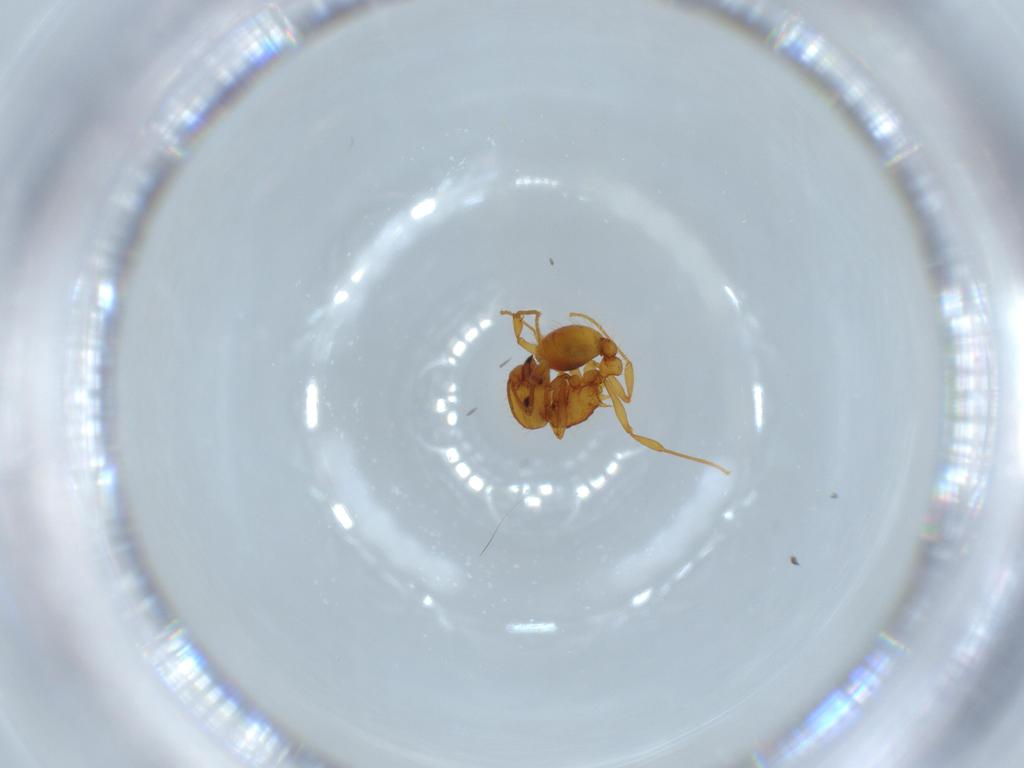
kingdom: Animalia
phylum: Arthropoda
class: Insecta
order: Hymenoptera
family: Formicidae
